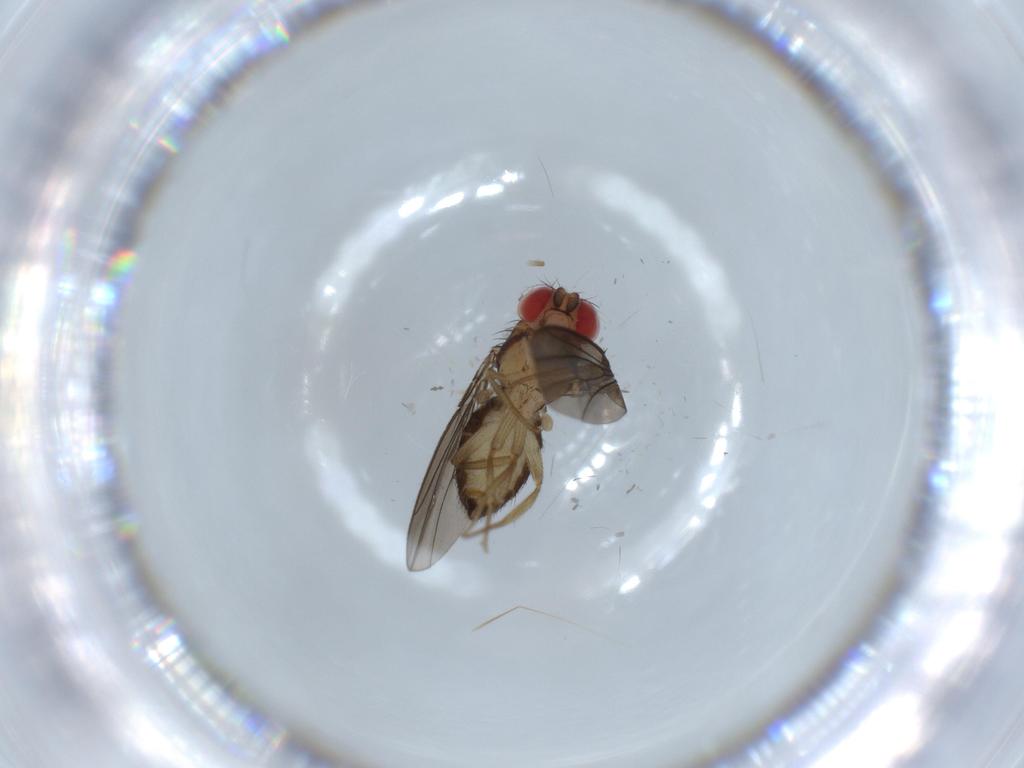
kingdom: Animalia
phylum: Arthropoda
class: Insecta
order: Diptera
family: Drosophilidae
